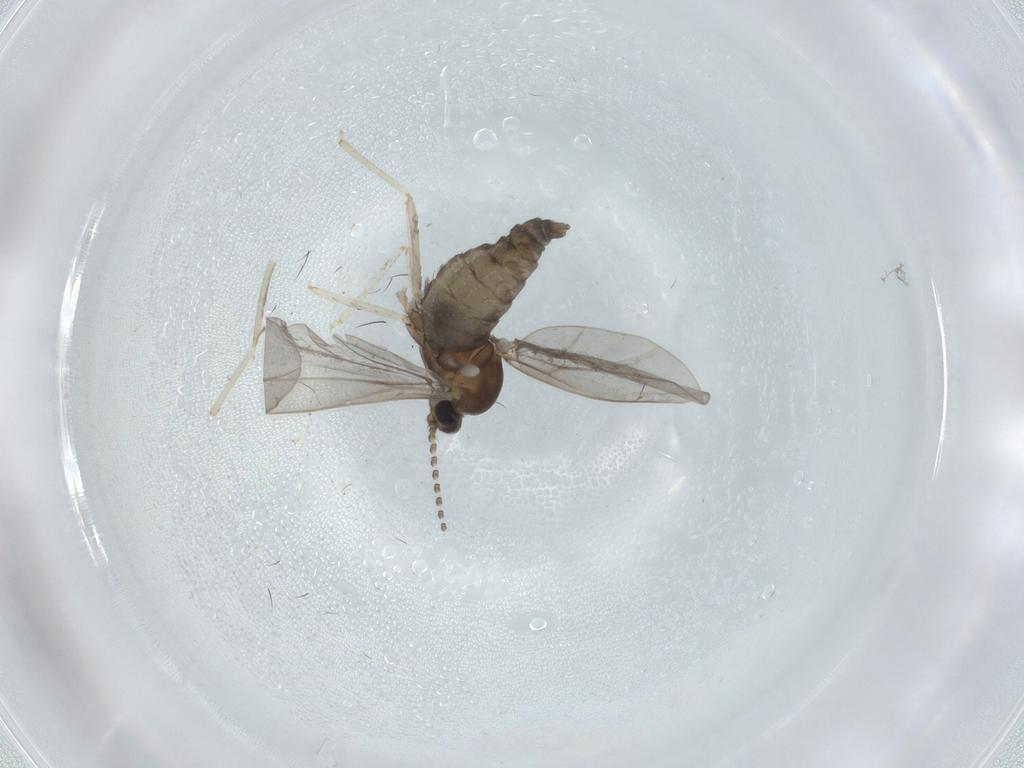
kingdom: Animalia
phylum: Arthropoda
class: Insecta
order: Diptera
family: Cecidomyiidae
